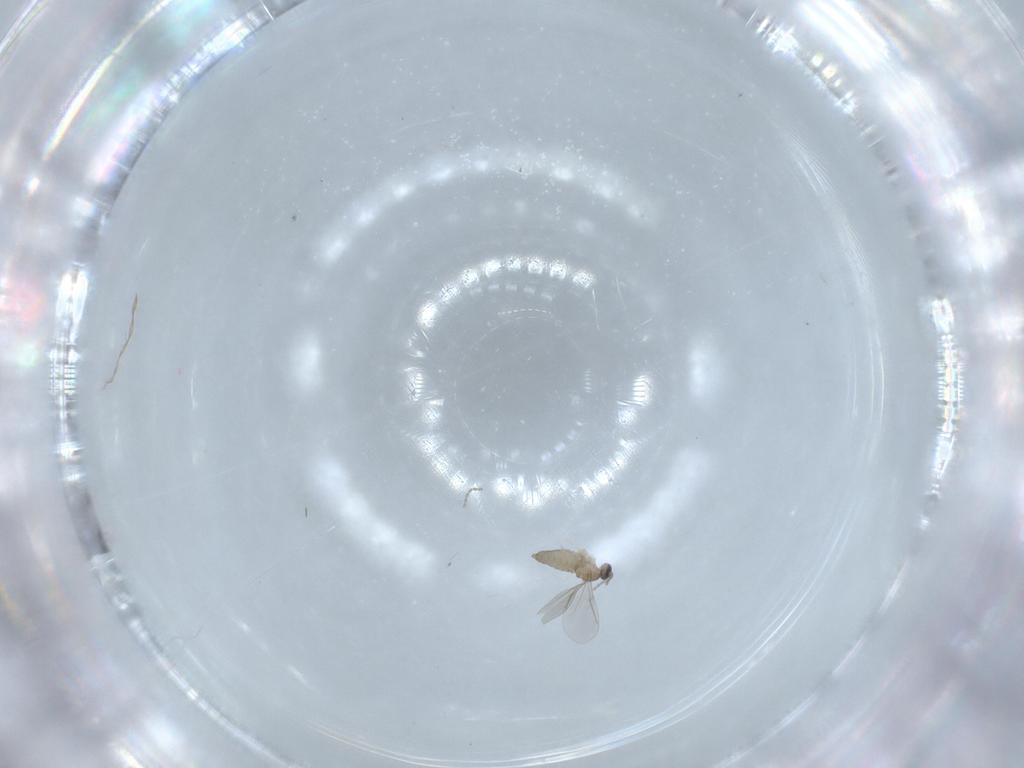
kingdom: Animalia
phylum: Arthropoda
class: Insecta
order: Diptera
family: Cecidomyiidae
